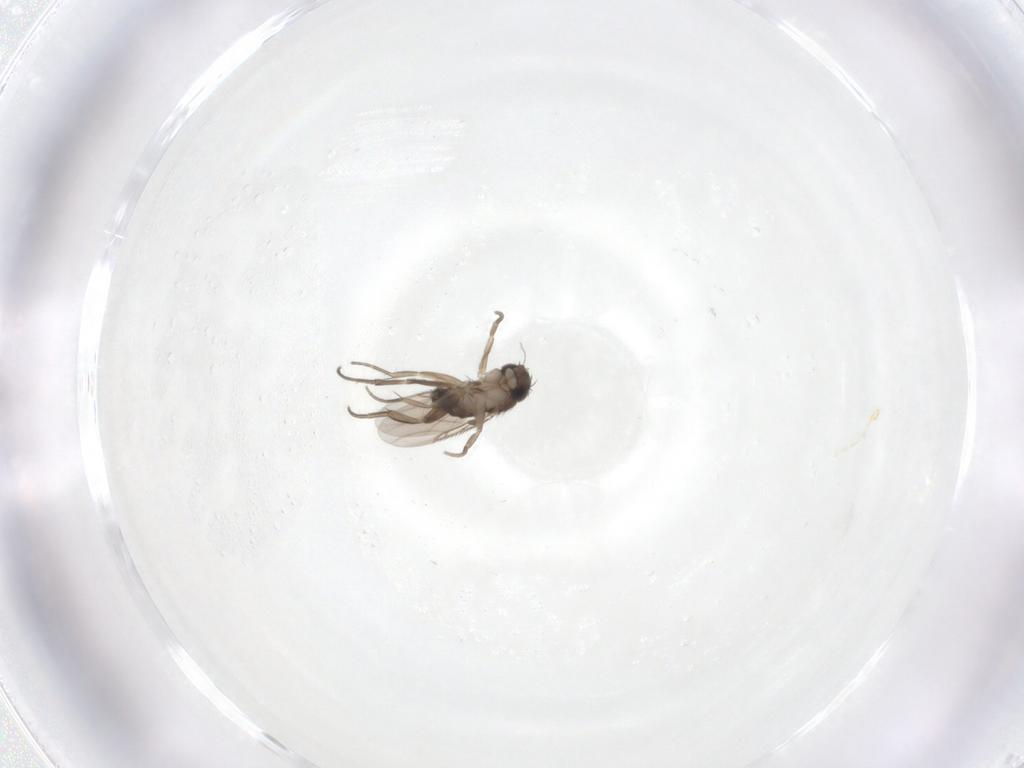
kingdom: Animalia
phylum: Arthropoda
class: Insecta
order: Diptera
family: Phoridae
